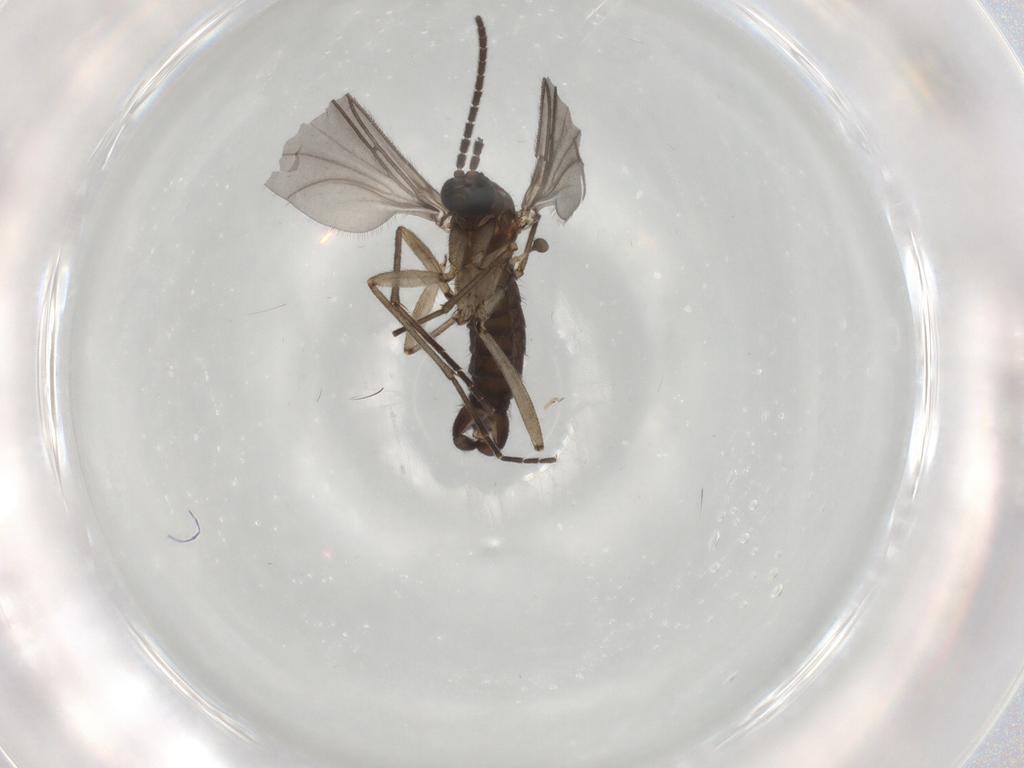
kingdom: Animalia
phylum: Arthropoda
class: Insecta
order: Diptera
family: Sciaridae
